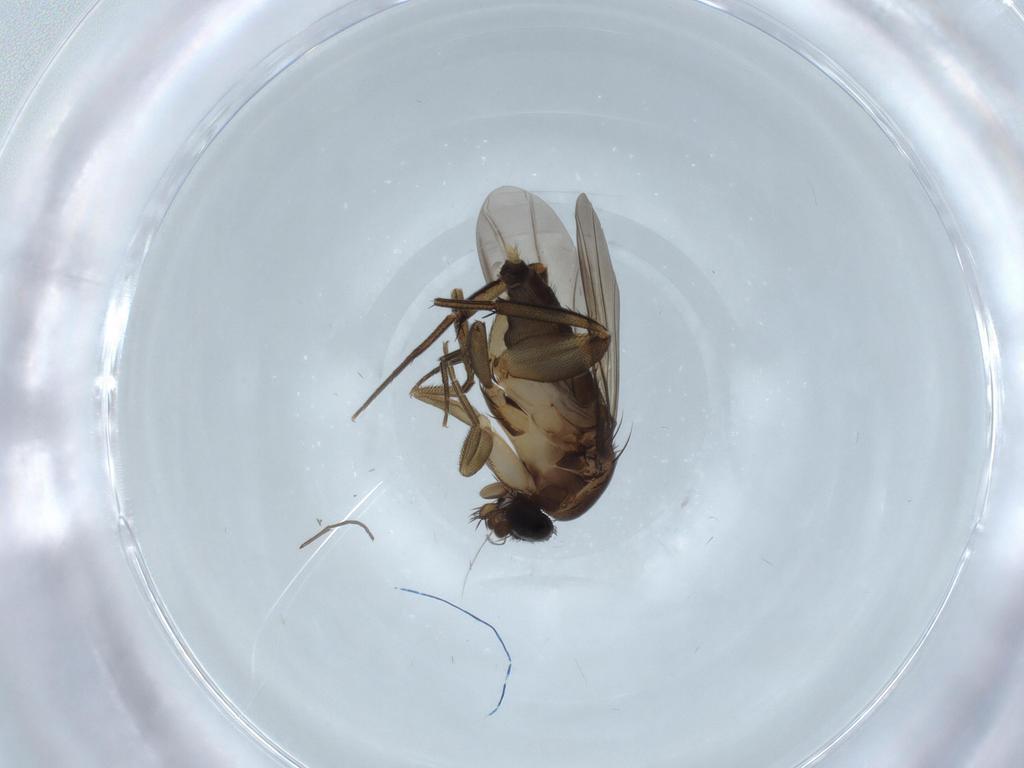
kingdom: Animalia
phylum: Arthropoda
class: Insecta
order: Diptera
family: Phoridae
